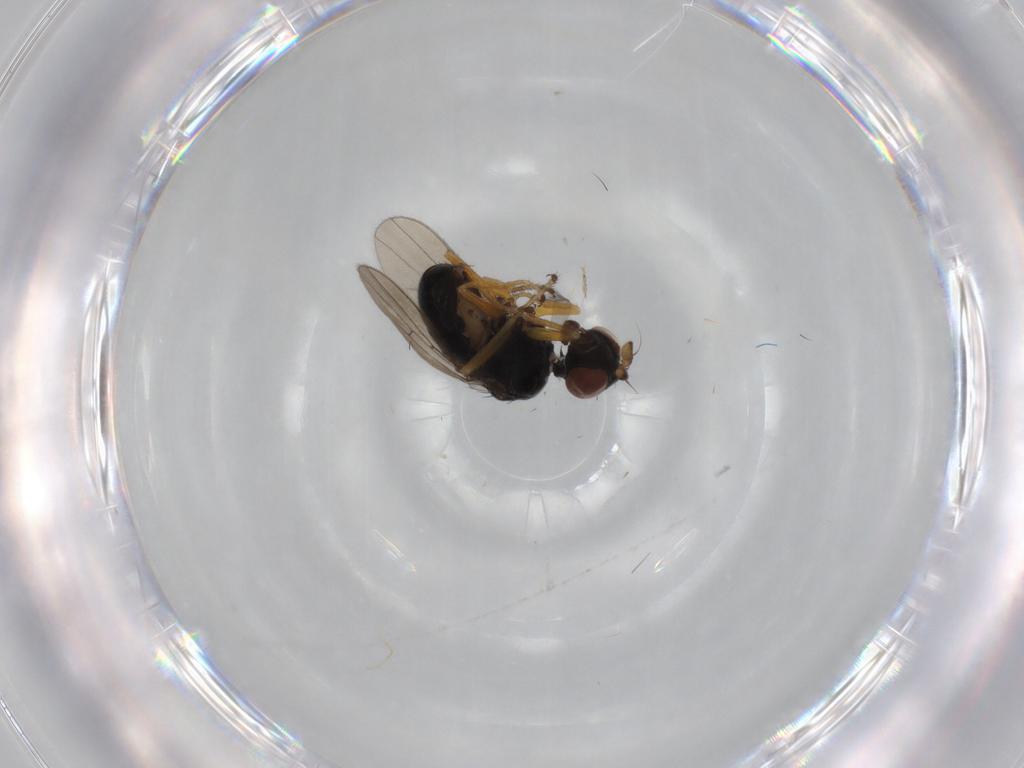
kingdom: Animalia
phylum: Arthropoda
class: Insecta
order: Diptera
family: Ephydridae
